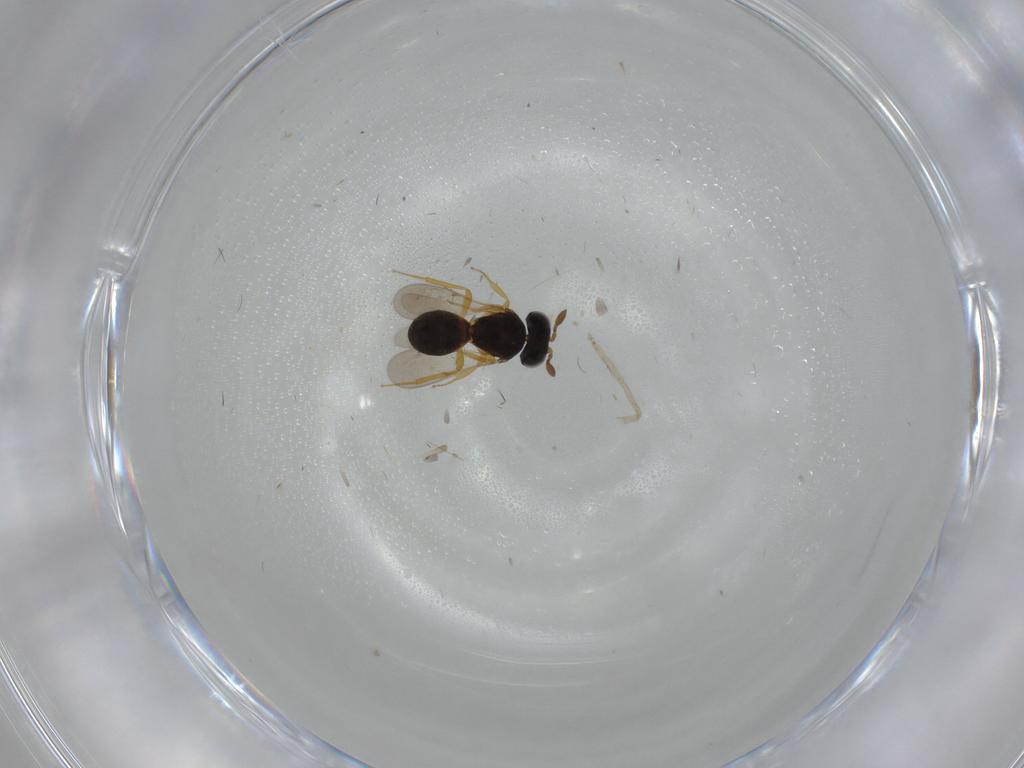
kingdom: Animalia
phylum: Arthropoda
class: Insecta
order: Hymenoptera
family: Scelionidae
